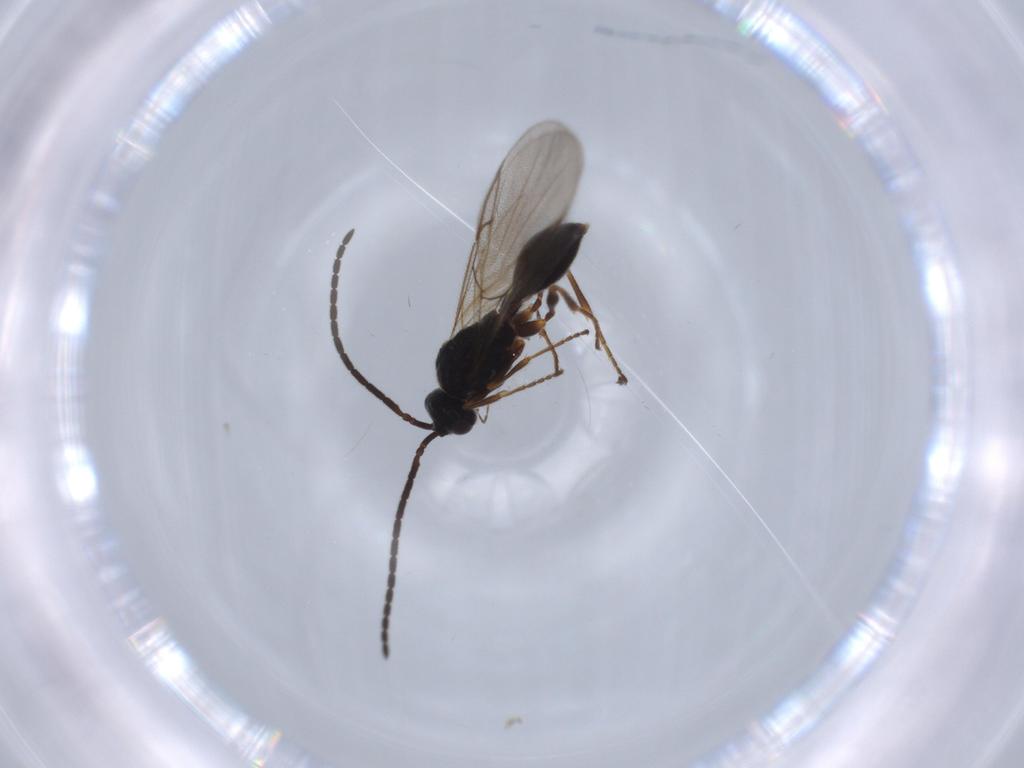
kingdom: Animalia
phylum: Arthropoda
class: Insecta
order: Hymenoptera
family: Diapriidae
